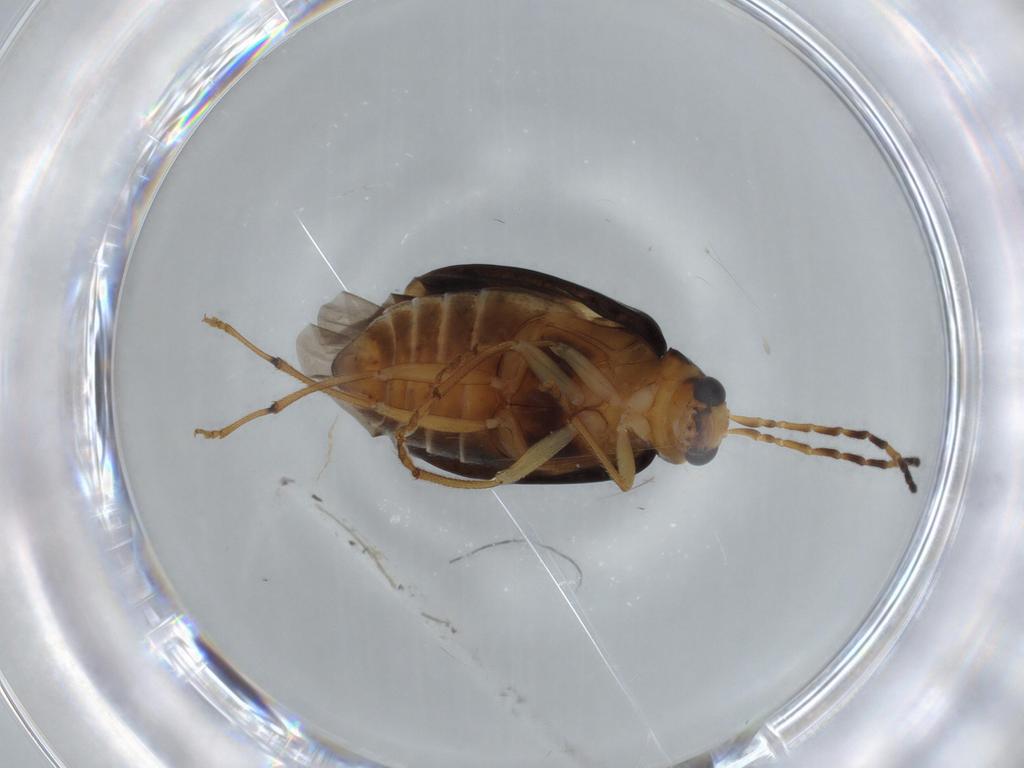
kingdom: Animalia
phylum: Arthropoda
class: Insecta
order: Coleoptera
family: Chrysomelidae
